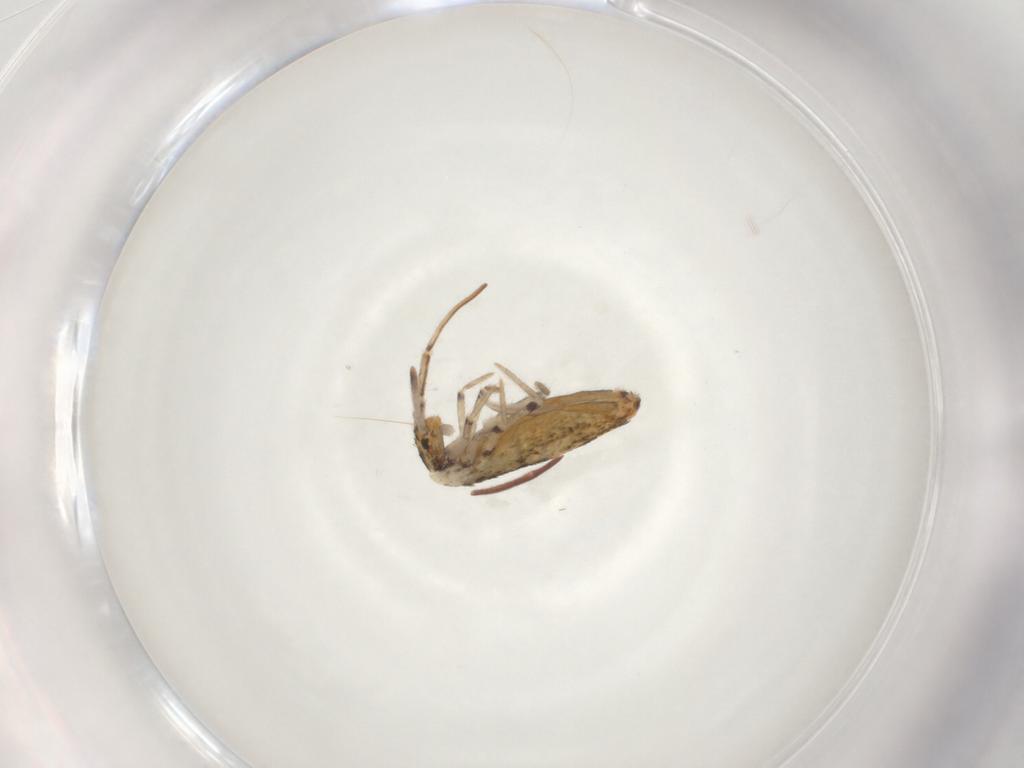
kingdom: Animalia
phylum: Arthropoda
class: Collembola
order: Entomobryomorpha
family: Entomobryidae
